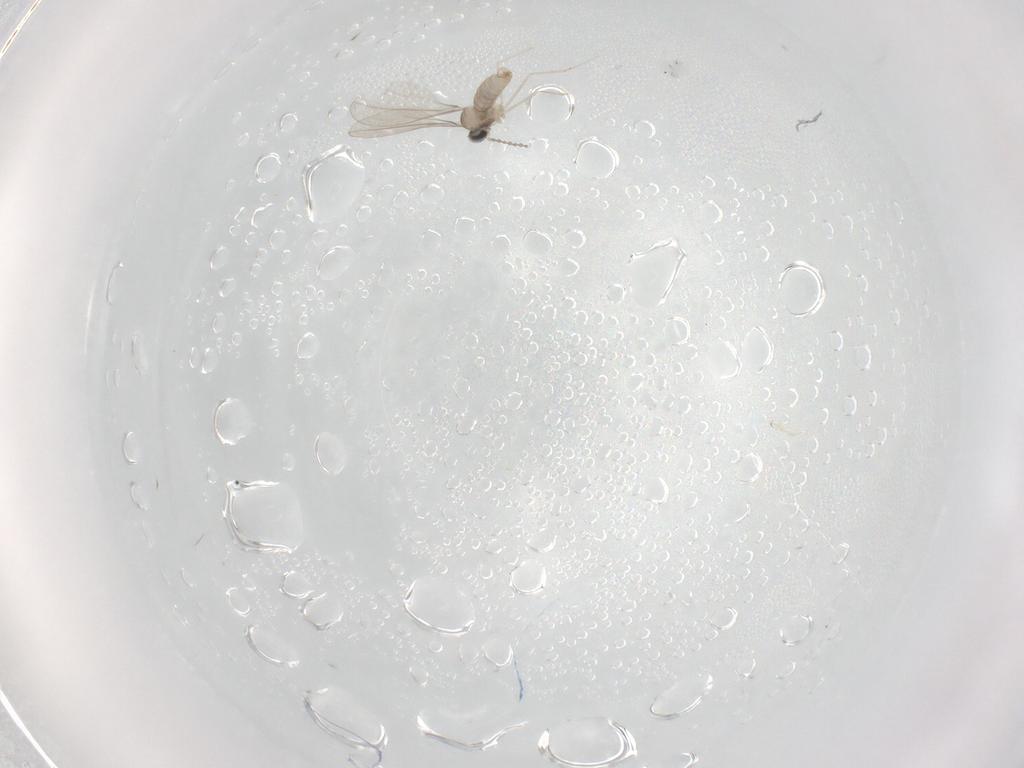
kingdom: Animalia
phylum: Arthropoda
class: Insecta
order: Diptera
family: Cecidomyiidae
